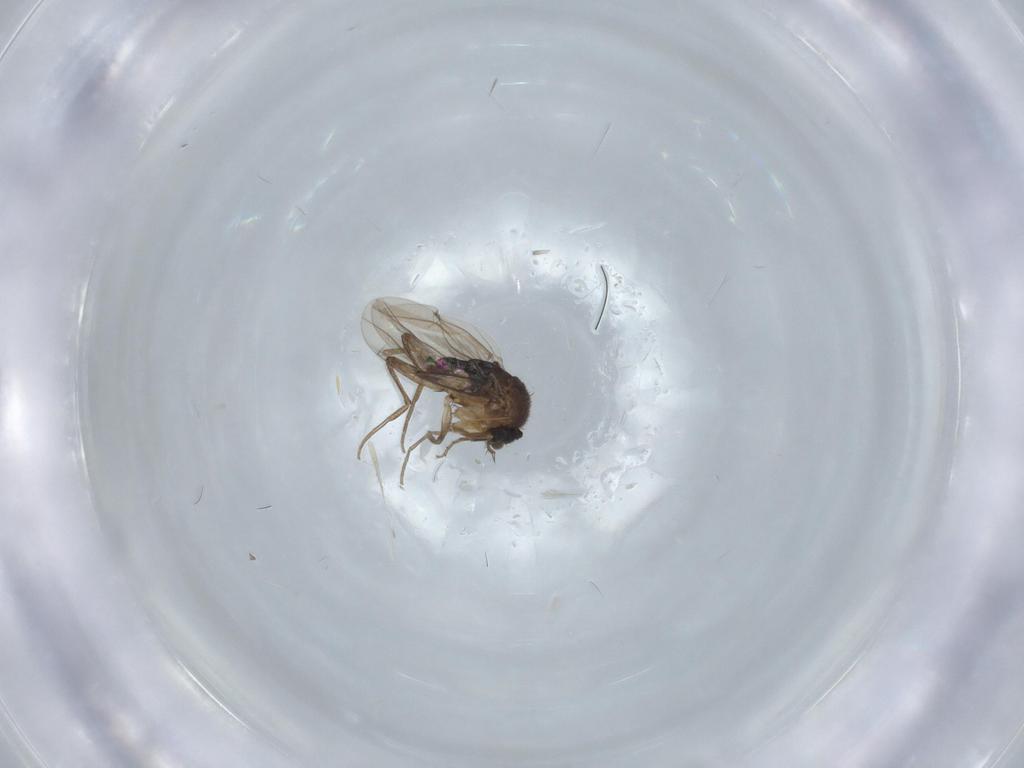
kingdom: Animalia
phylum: Arthropoda
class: Insecta
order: Diptera
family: Phoridae
